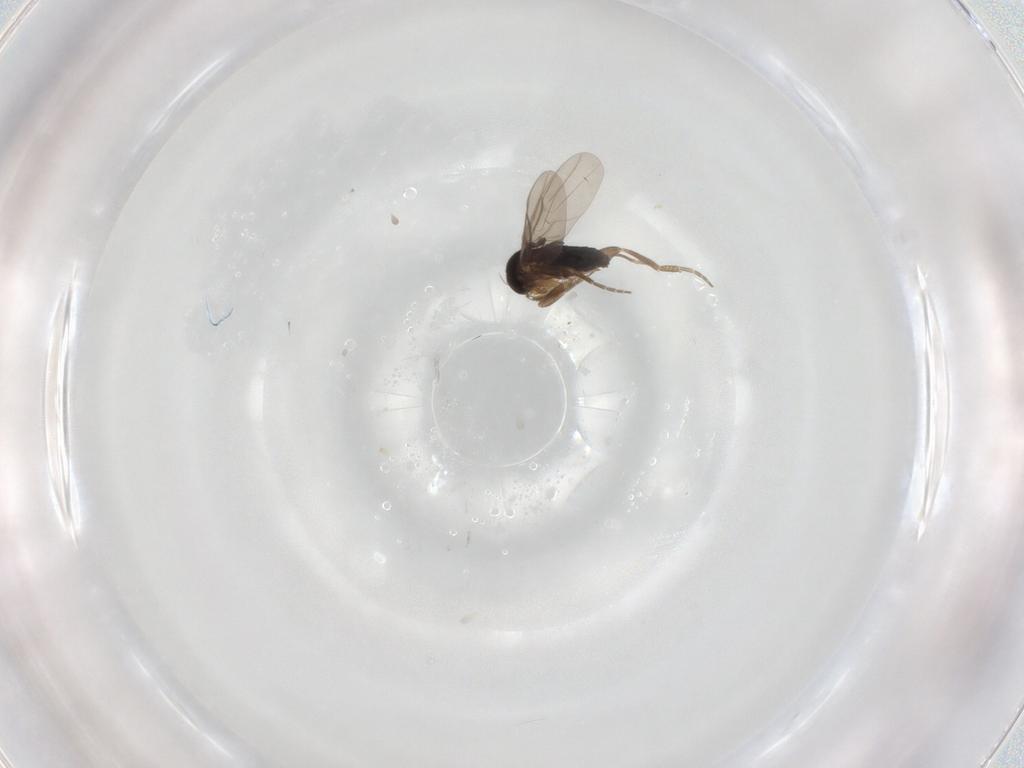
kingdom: Animalia
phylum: Arthropoda
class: Insecta
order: Diptera
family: Phoridae
